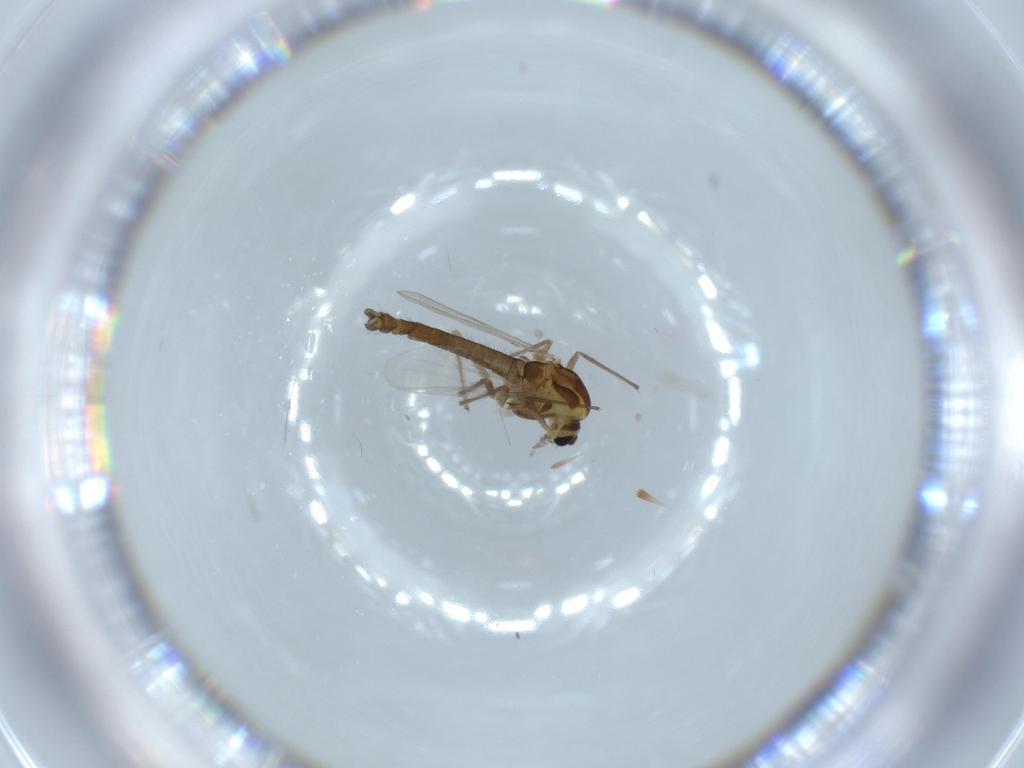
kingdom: Animalia
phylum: Arthropoda
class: Insecta
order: Diptera
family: Chironomidae
